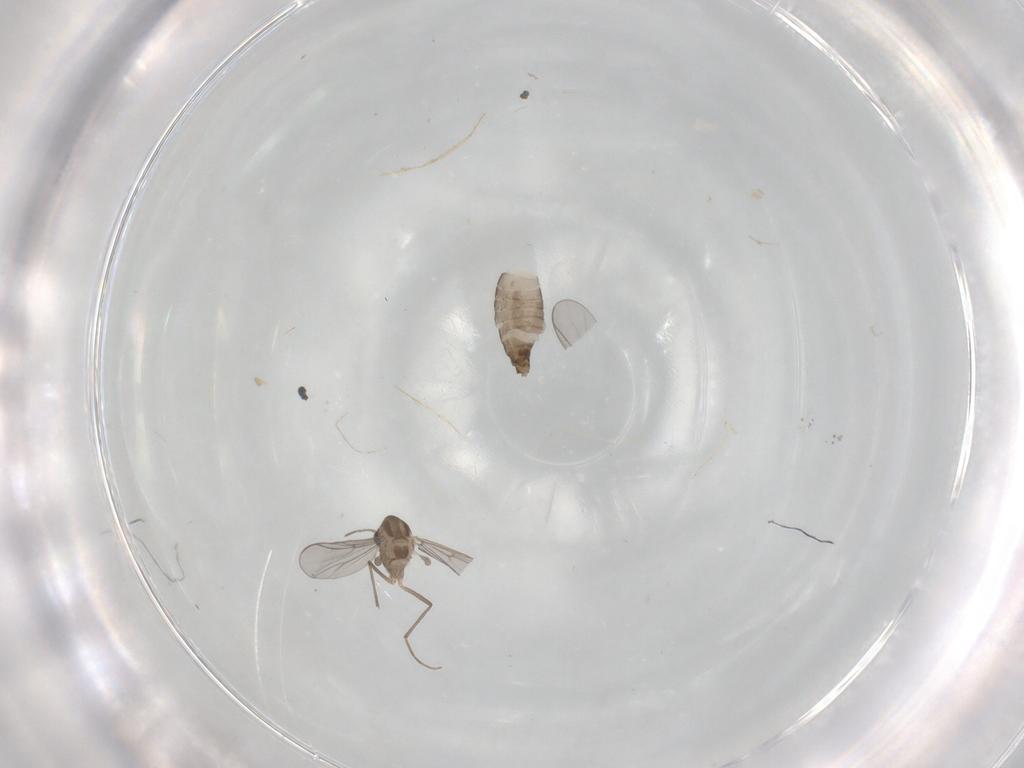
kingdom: Animalia
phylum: Arthropoda
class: Insecta
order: Diptera
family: Chironomidae
